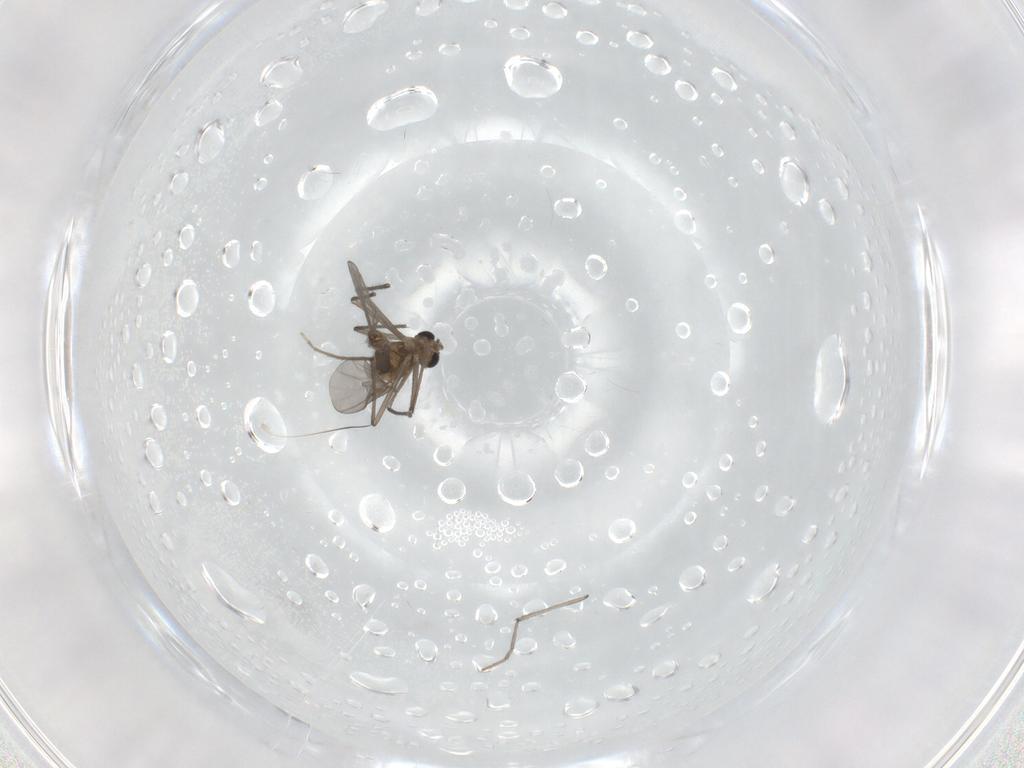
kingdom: Animalia
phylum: Arthropoda
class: Insecta
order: Diptera
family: Chironomidae
